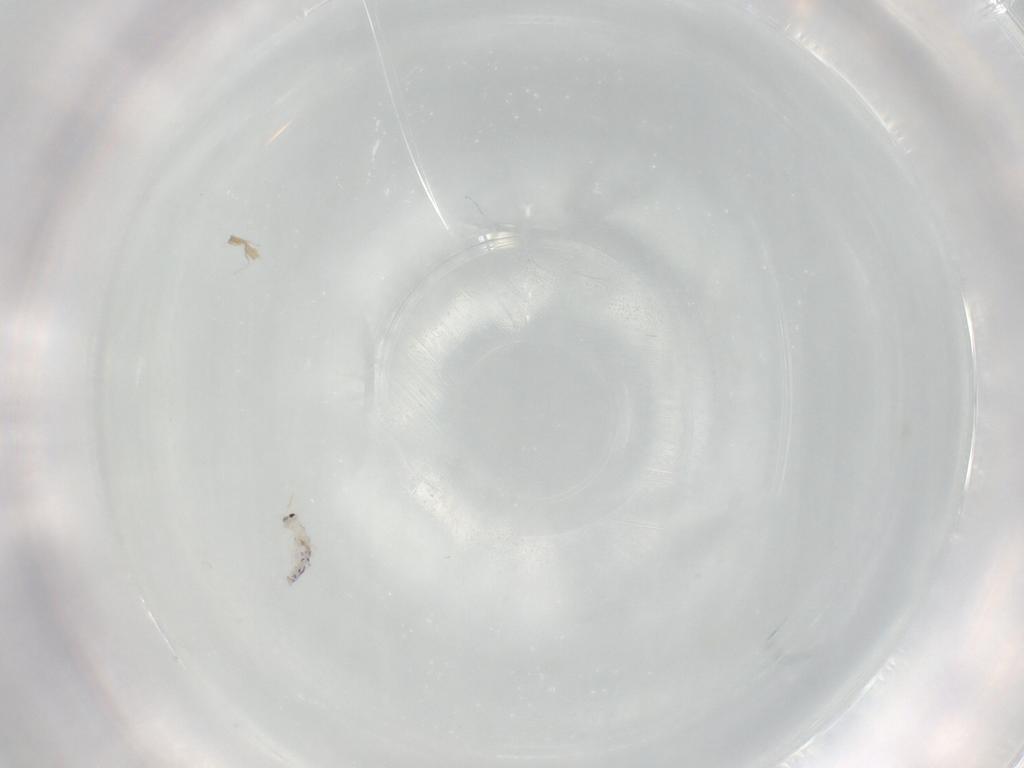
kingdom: Animalia
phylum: Arthropoda
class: Collembola
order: Entomobryomorpha
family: Entomobryidae
